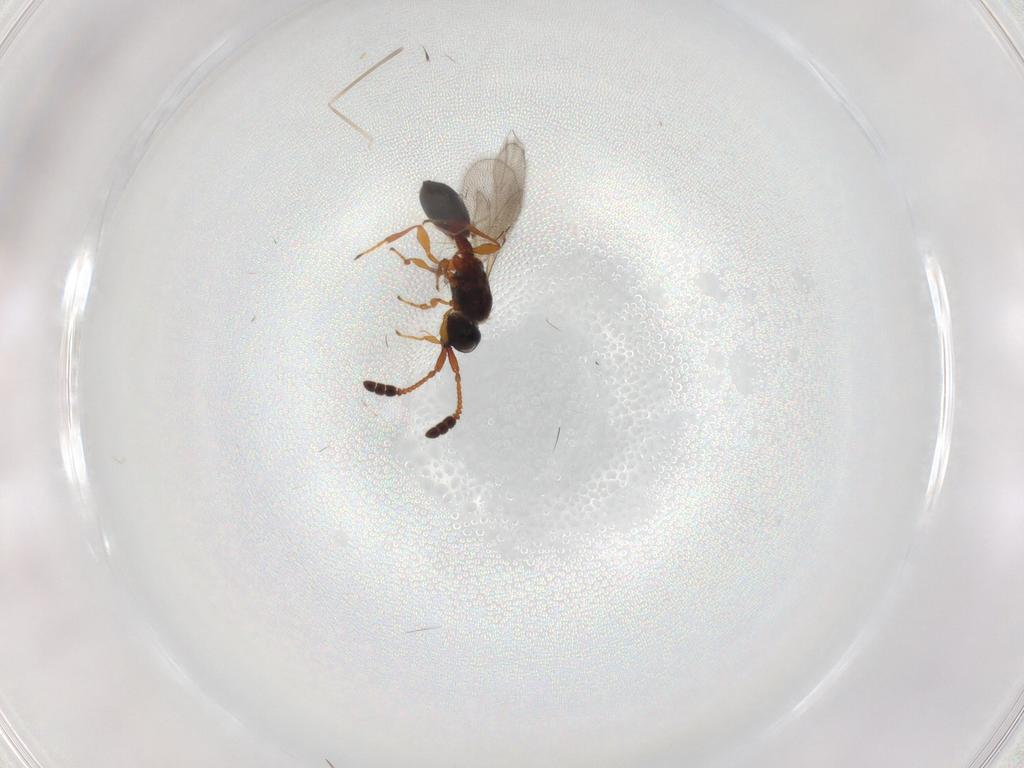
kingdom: Animalia
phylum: Arthropoda
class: Insecta
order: Hymenoptera
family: Diapriidae
